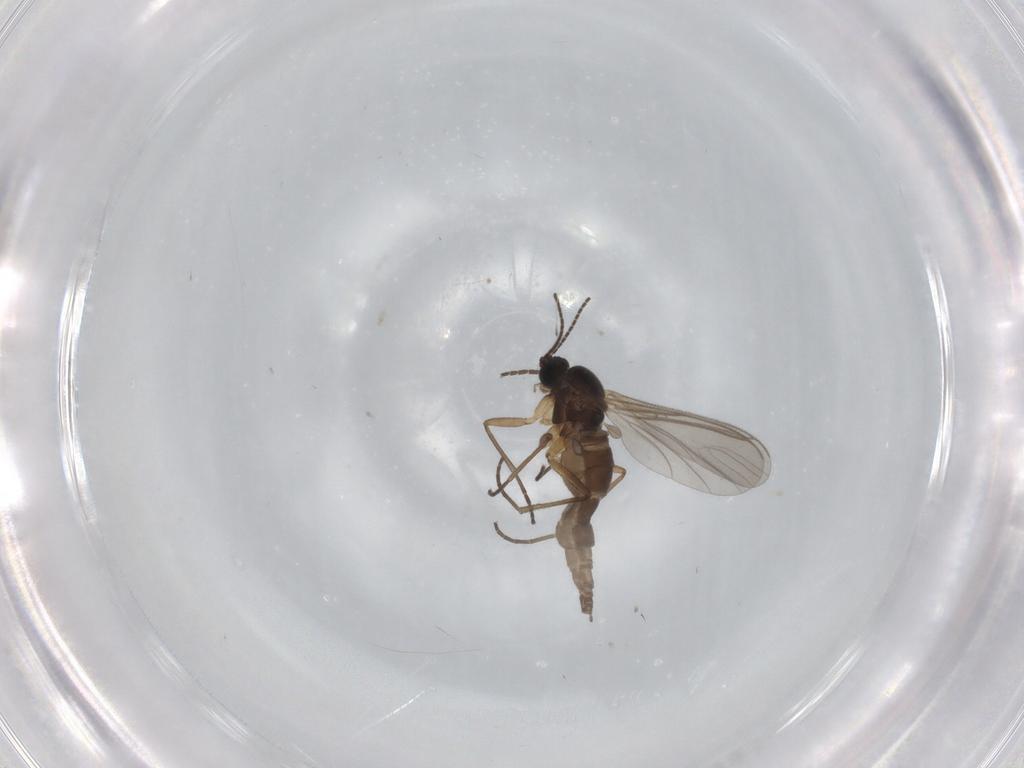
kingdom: Animalia
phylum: Arthropoda
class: Insecta
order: Diptera
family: Sciaridae
